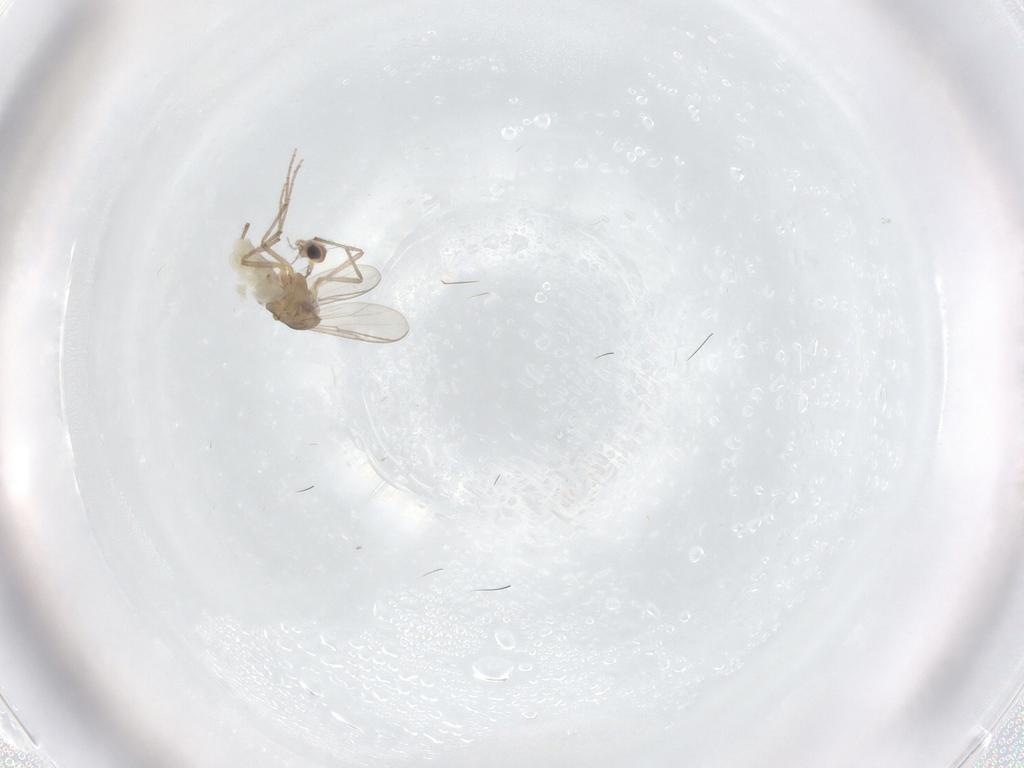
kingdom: Animalia
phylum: Arthropoda
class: Insecta
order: Diptera
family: Chironomidae
